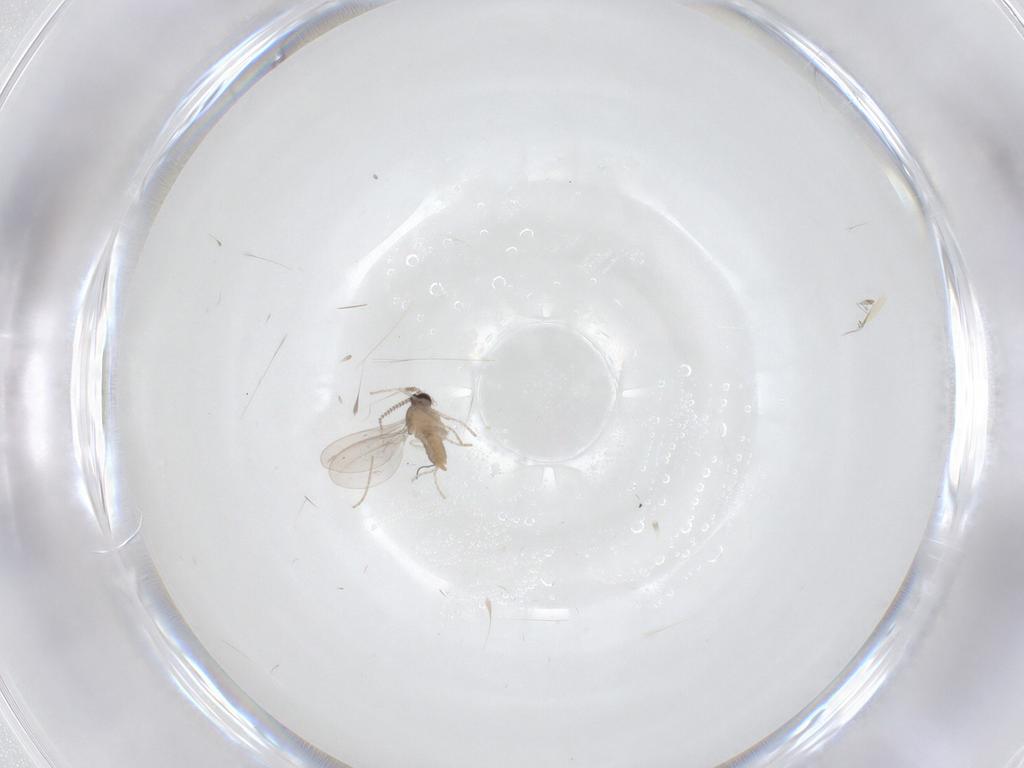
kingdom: Animalia
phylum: Arthropoda
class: Insecta
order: Diptera
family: Cecidomyiidae
